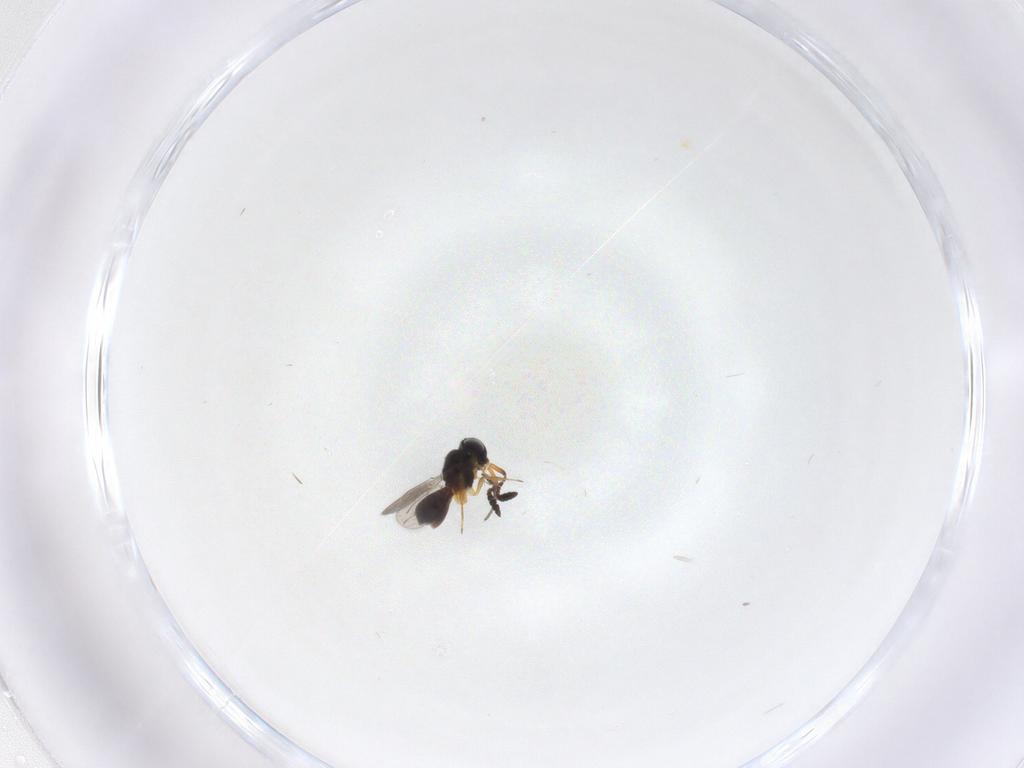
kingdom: Animalia
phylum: Arthropoda
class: Insecta
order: Hymenoptera
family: Scelionidae
